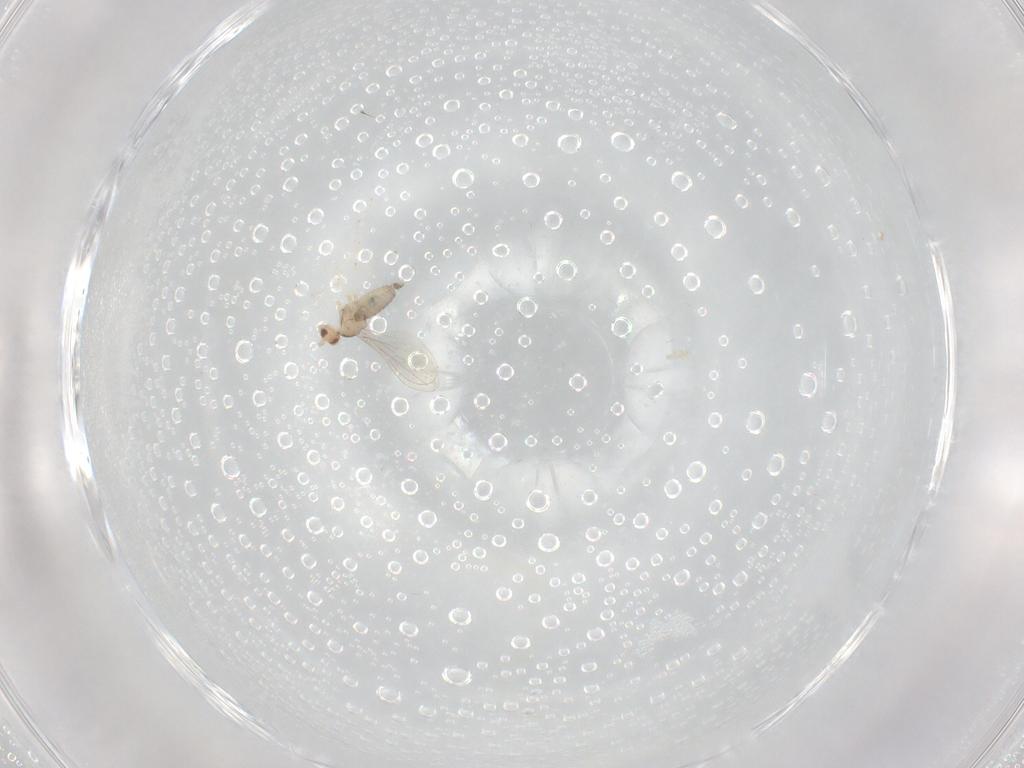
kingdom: Animalia
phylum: Arthropoda
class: Insecta
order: Diptera
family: Cecidomyiidae
